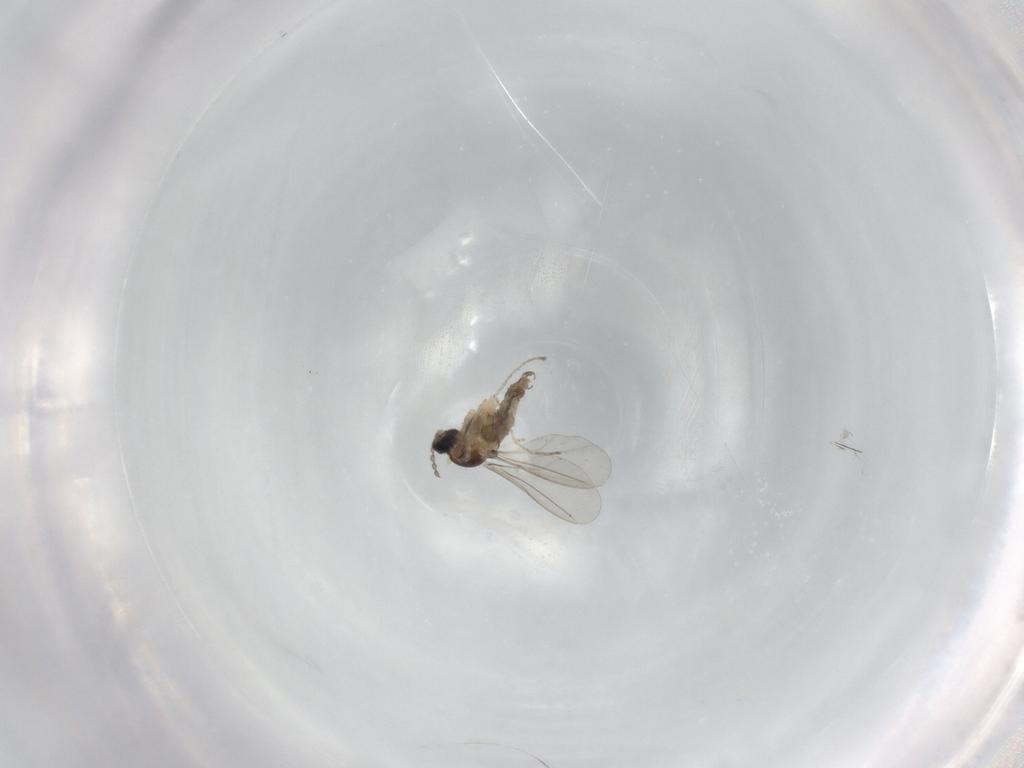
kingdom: Animalia
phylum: Arthropoda
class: Insecta
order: Diptera
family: Cecidomyiidae
